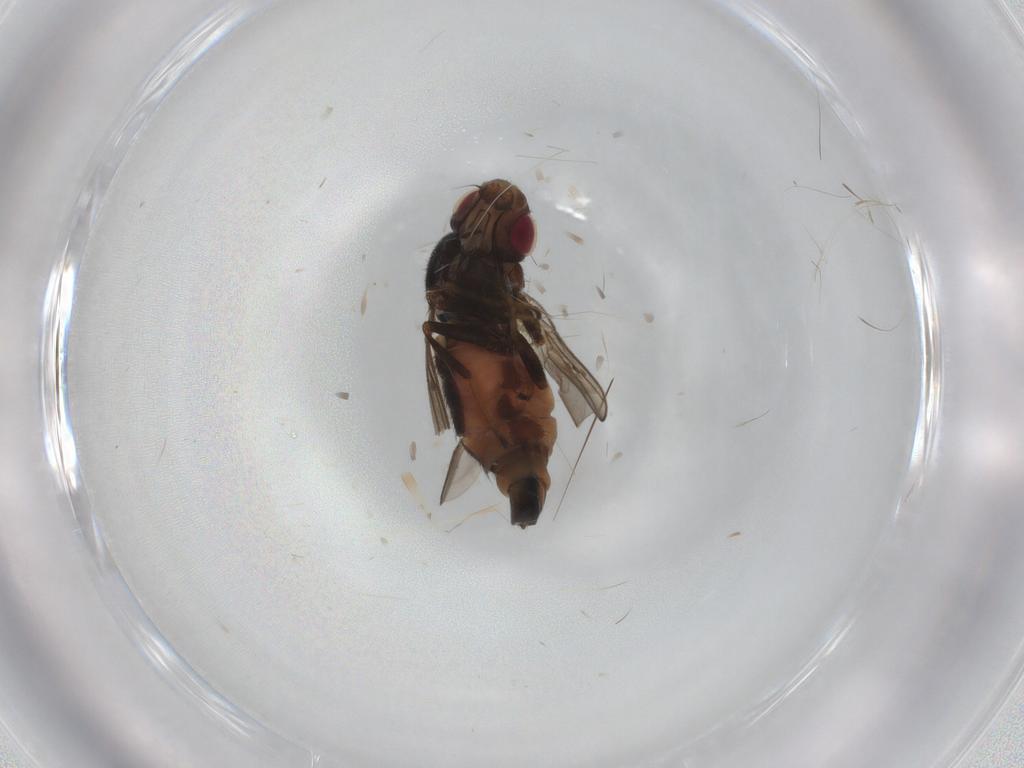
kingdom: Animalia
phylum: Arthropoda
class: Insecta
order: Diptera
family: Chloropidae
